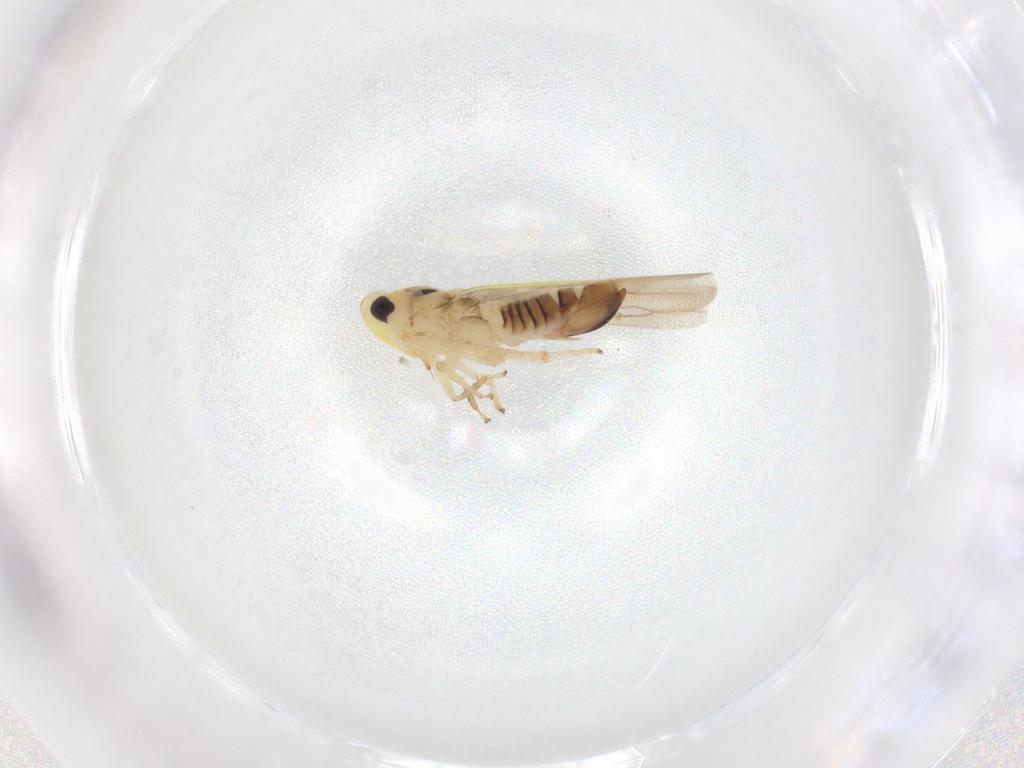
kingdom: Animalia
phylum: Arthropoda
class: Insecta
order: Hemiptera
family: Cicadellidae
